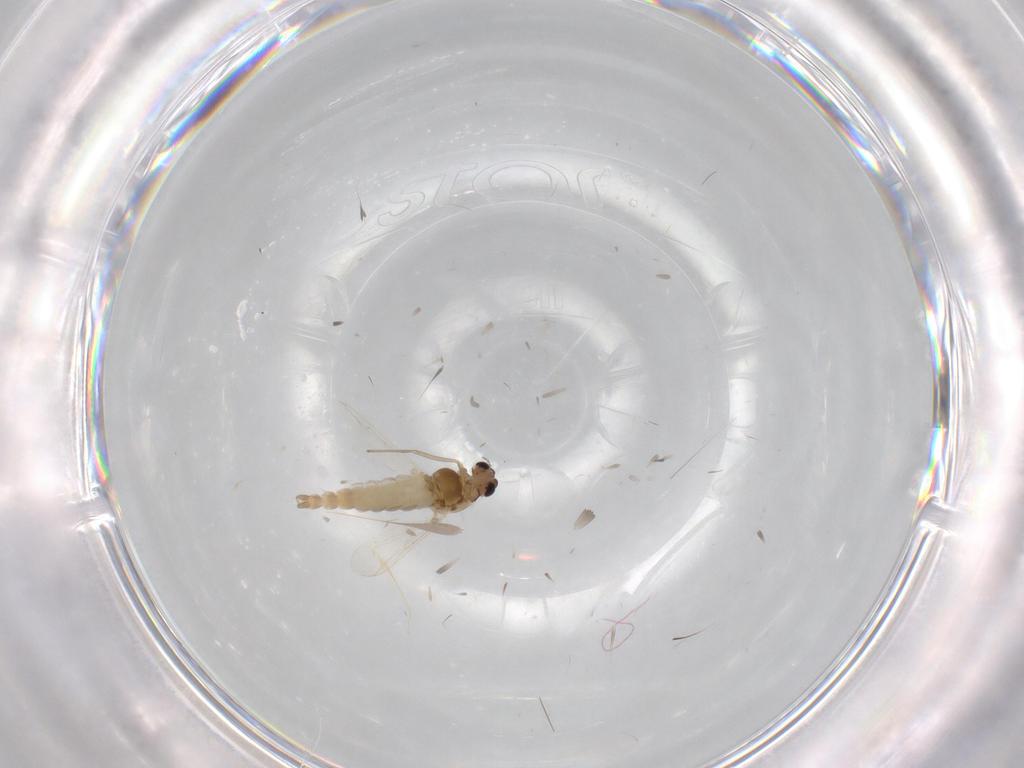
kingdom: Animalia
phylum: Arthropoda
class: Insecta
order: Diptera
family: Chironomidae
